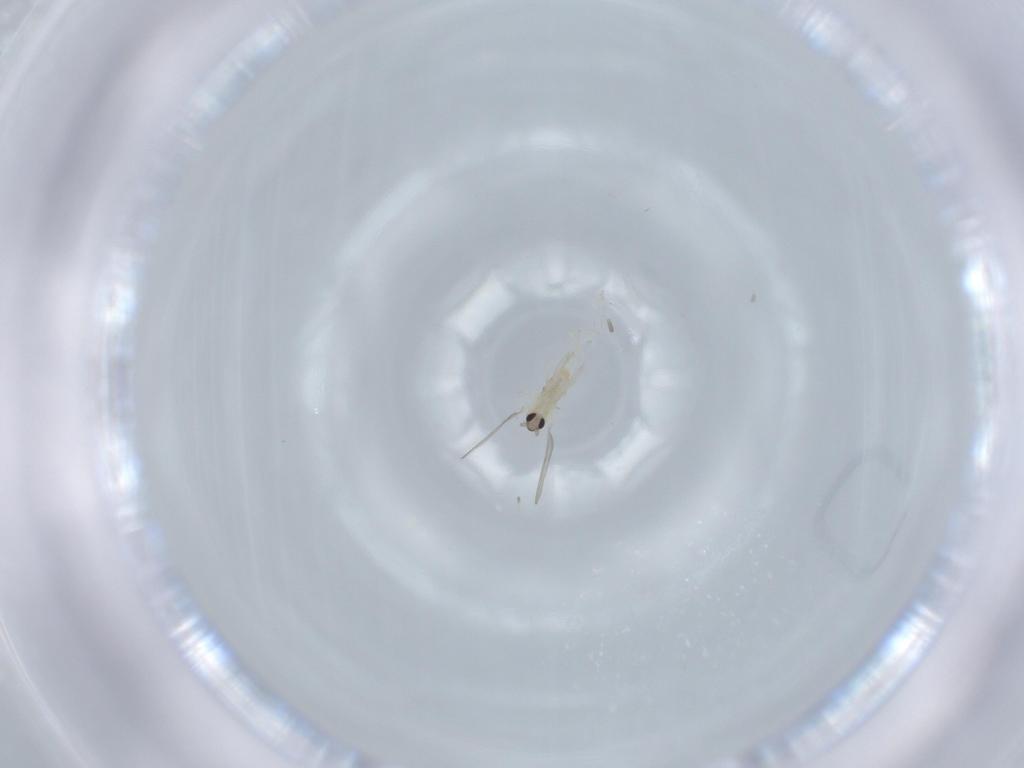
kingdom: Animalia
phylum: Arthropoda
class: Insecta
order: Diptera
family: Cecidomyiidae
